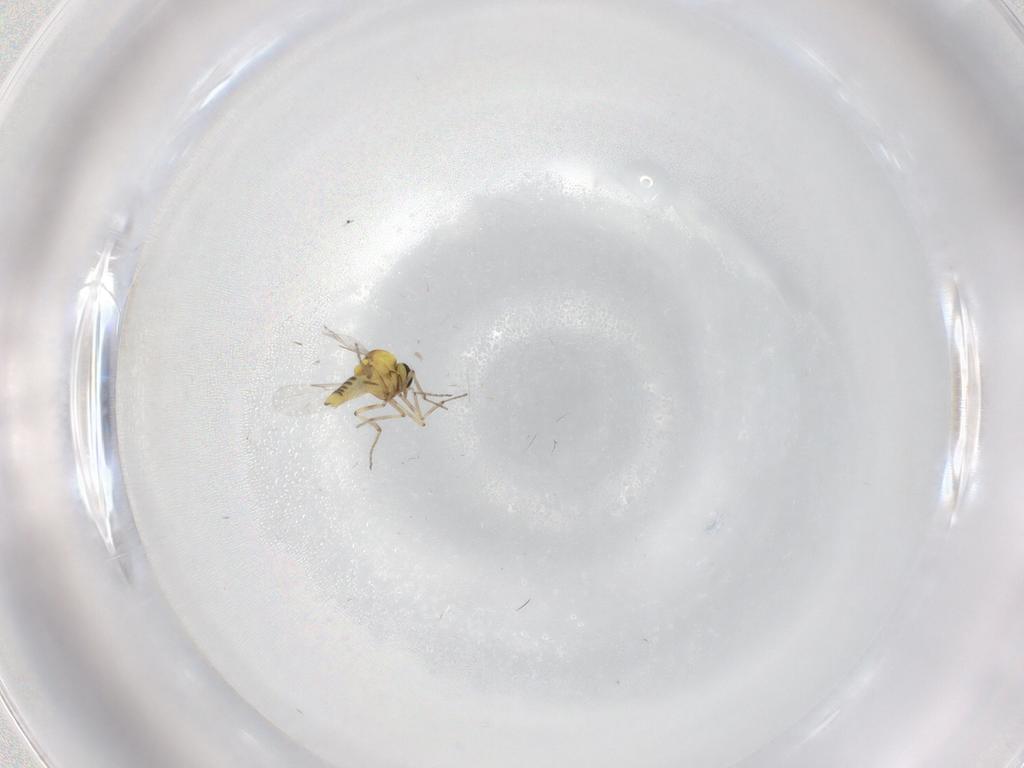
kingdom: Animalia
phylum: Arthropoda
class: Insecta
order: Diptera
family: Ceratopogonidae
